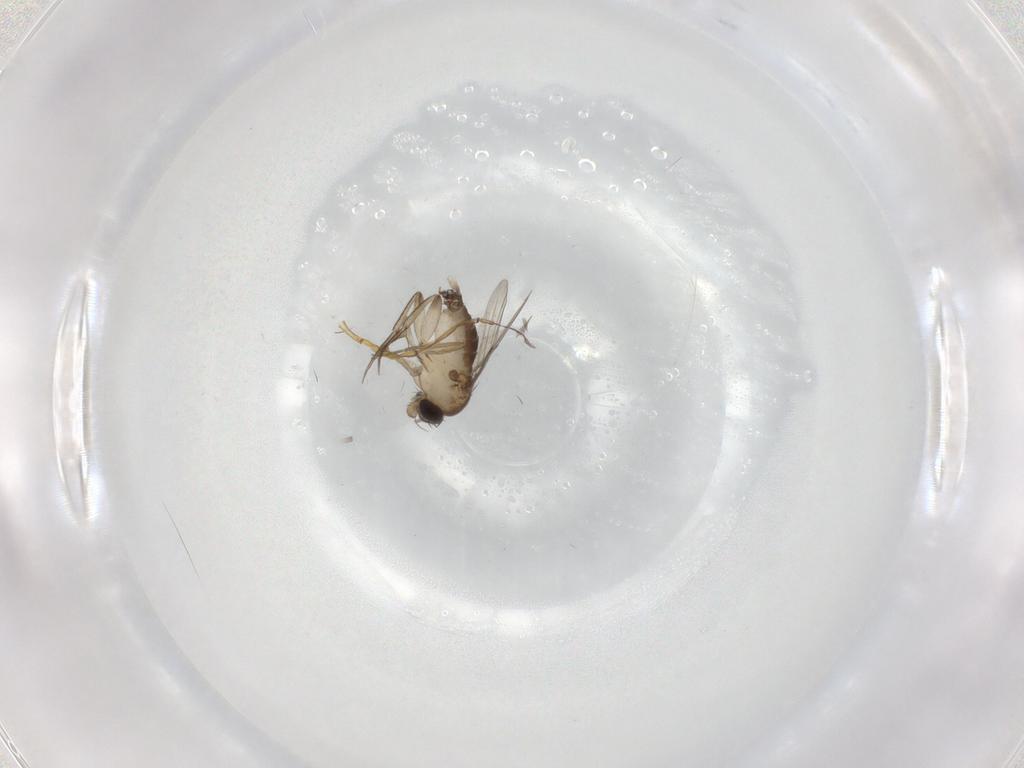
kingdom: Animalia
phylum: Arthropoda
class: Insecta
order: Diptera
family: Phoridae
